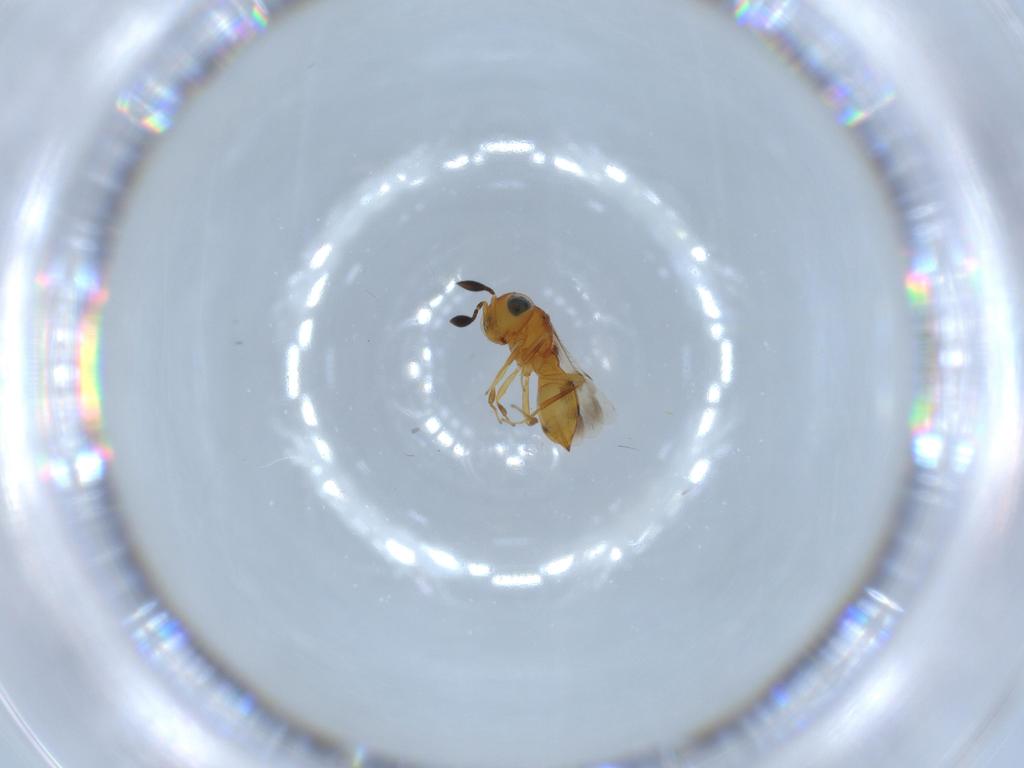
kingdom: Animalia
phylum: Arthropoda
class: Insecta
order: Hymenoptera
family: Scelionidae
